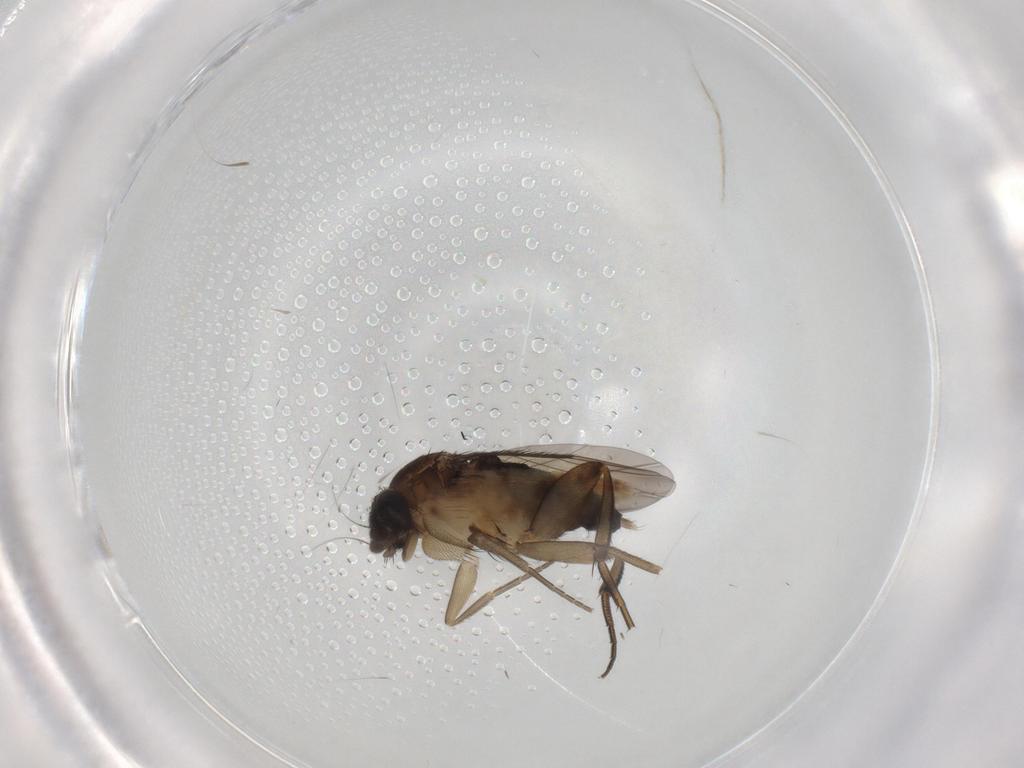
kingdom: Animalia
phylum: Arthropoda
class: Insecta
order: Diptera
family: Phoridae
